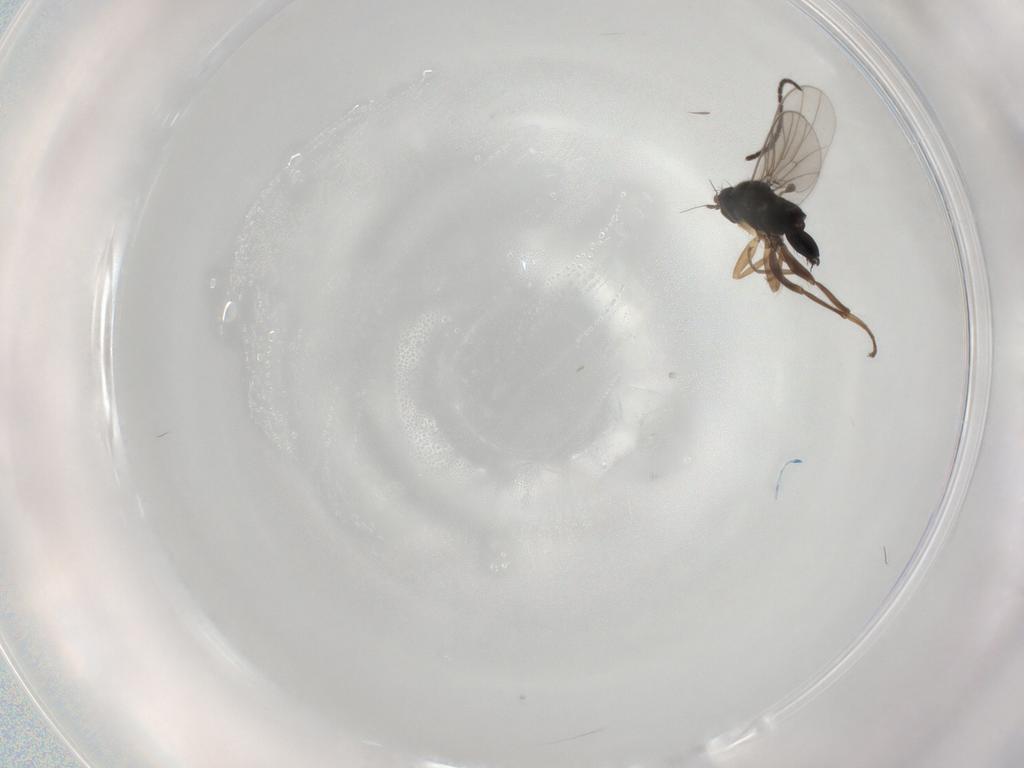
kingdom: Animalia
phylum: Arthropoda
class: Insecta
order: Diptera
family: Hybotidae
